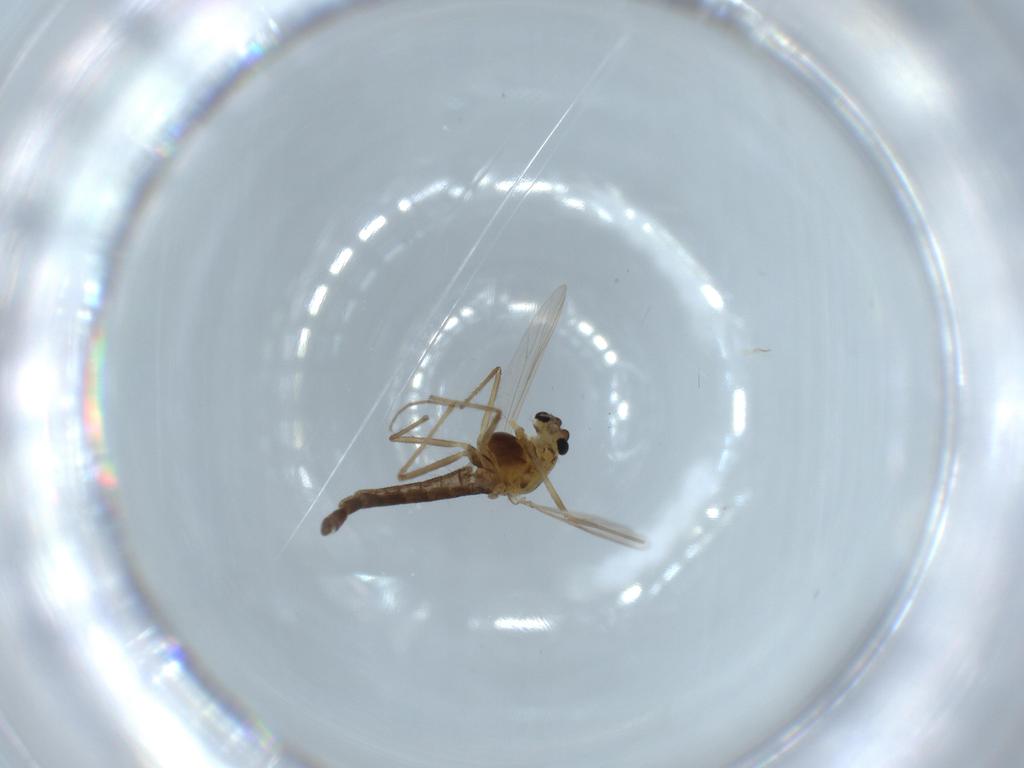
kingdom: Animalia
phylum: Arthropoda
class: Insecta
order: Diptera
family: Chironomidae
